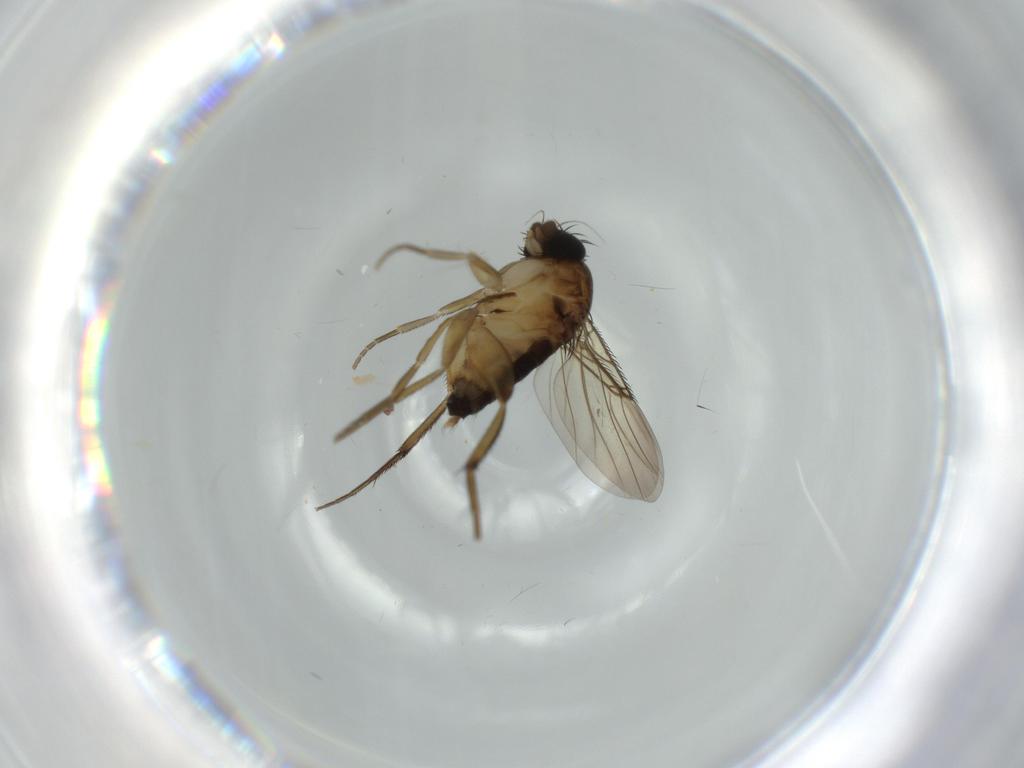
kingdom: Animalia
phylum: Arthropoda
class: Insecta
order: Diptera
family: Phoridae
